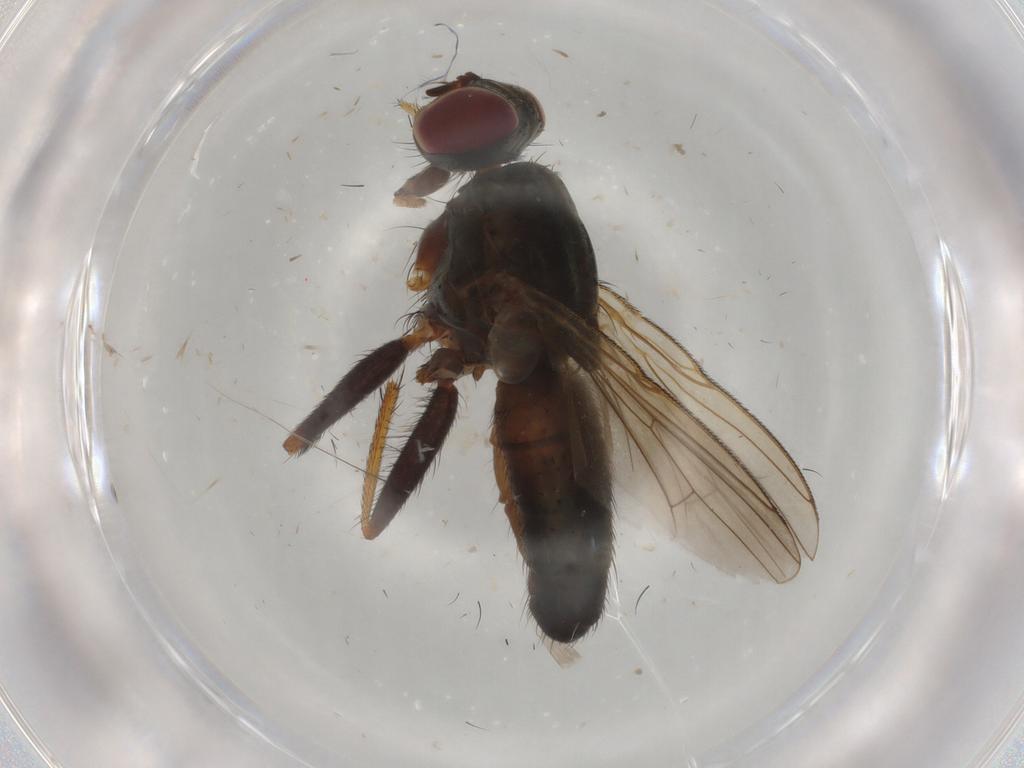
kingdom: Animalia
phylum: Arthropoda
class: Insecta
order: Diptera
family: Muscidae
